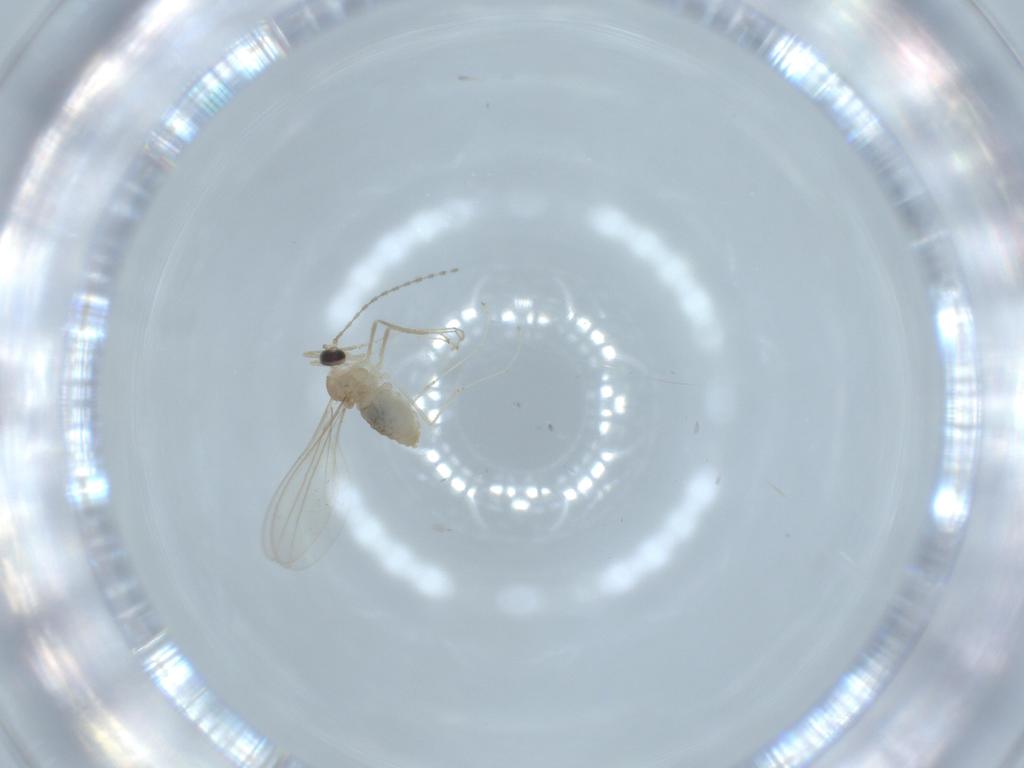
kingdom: Animalia
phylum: Arthropoda
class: Insecta
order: Diptera
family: Cecidomyiidae
